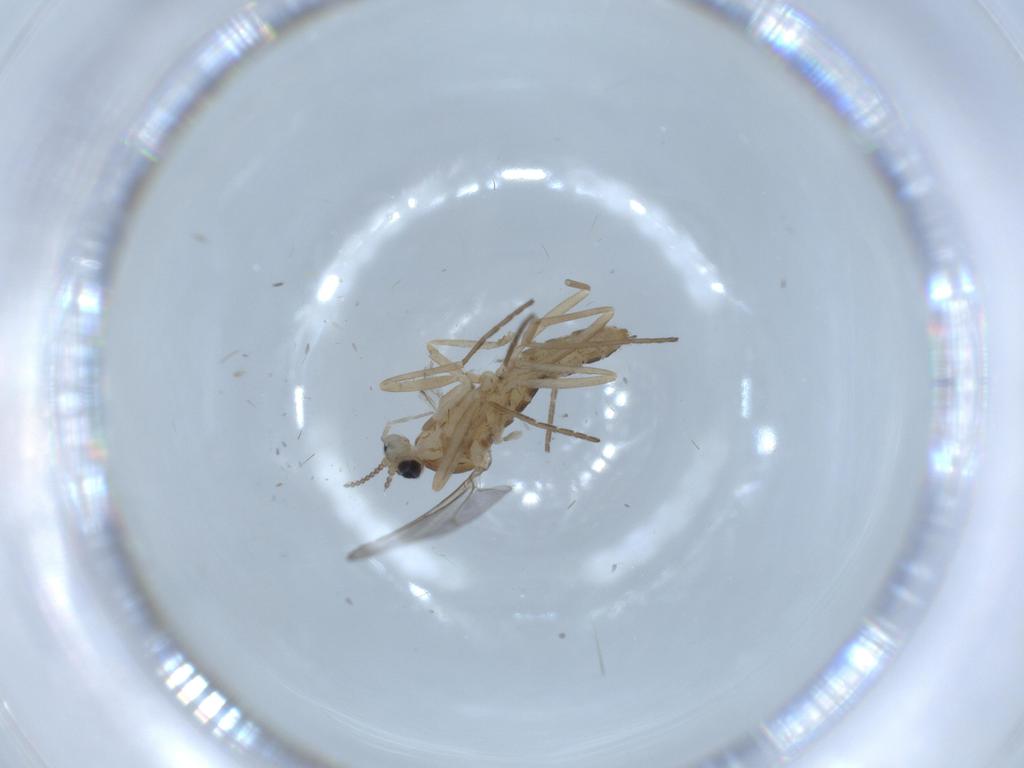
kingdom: Animalia
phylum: Arthropoda
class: Insecta
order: Diptera
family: Cecidomyiidae
